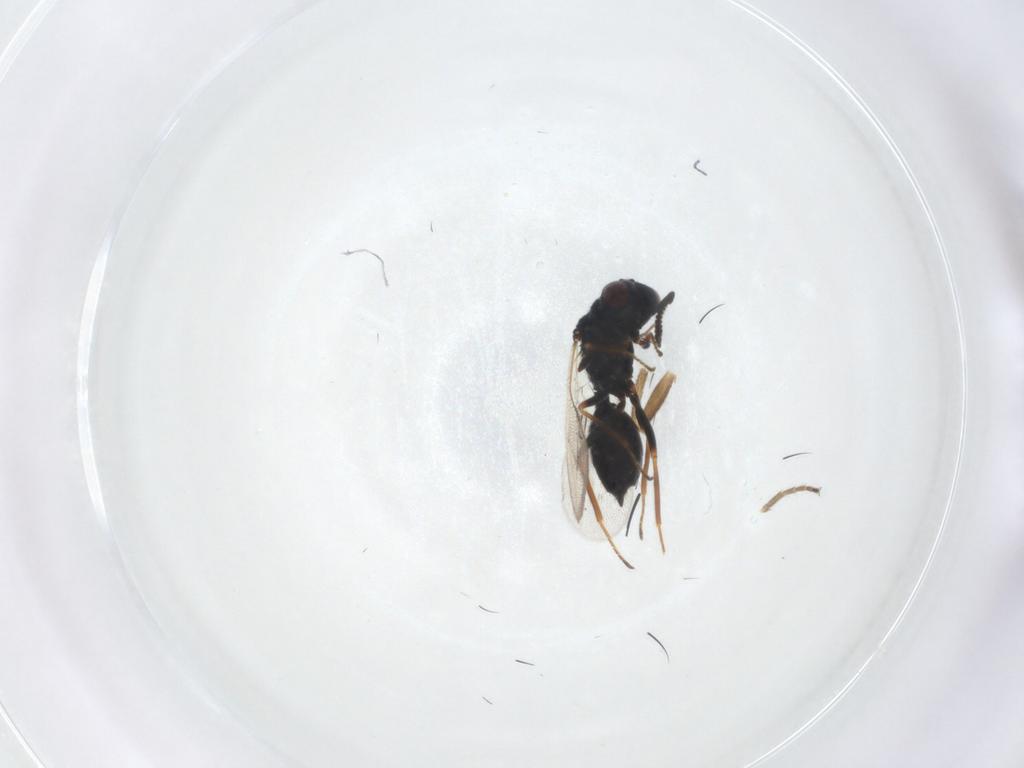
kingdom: Animalia
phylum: Arthropoda
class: Insecta
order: Hymenoptera
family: Chalcidoidea_incertae_sedis
